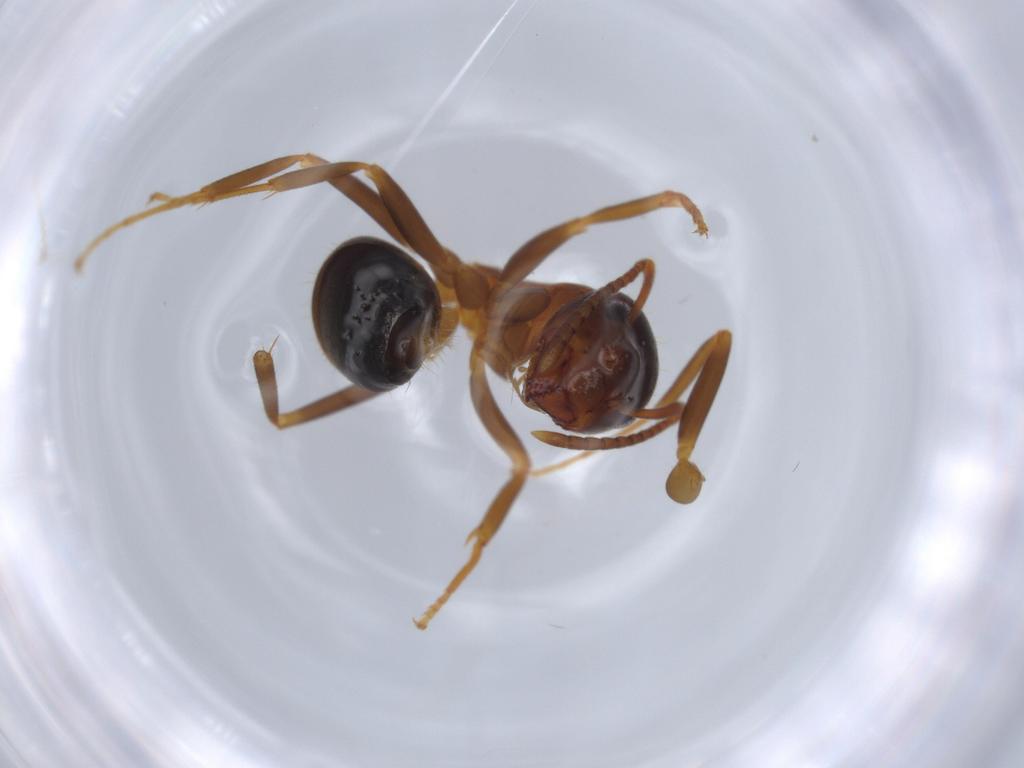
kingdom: Animalia
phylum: Arthropoda
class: Insecta
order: Hymenoptera
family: Formicidae
